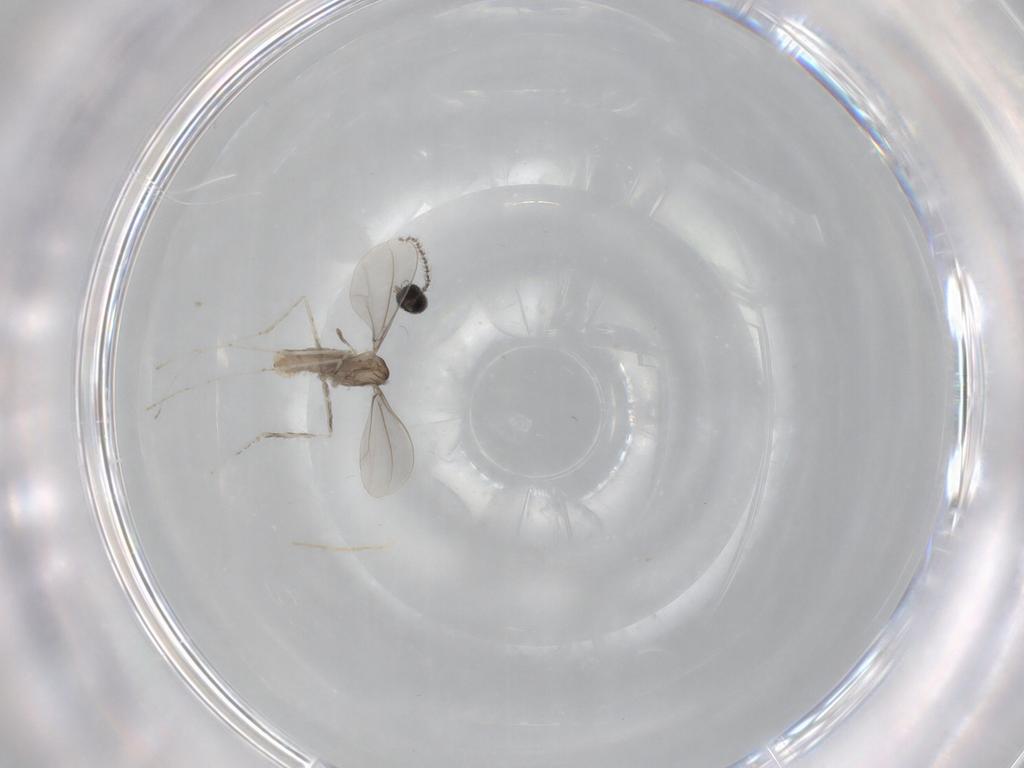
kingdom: Animalia
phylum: Arthropoda
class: Insecta
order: Diptera
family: Cecidomyiidae
